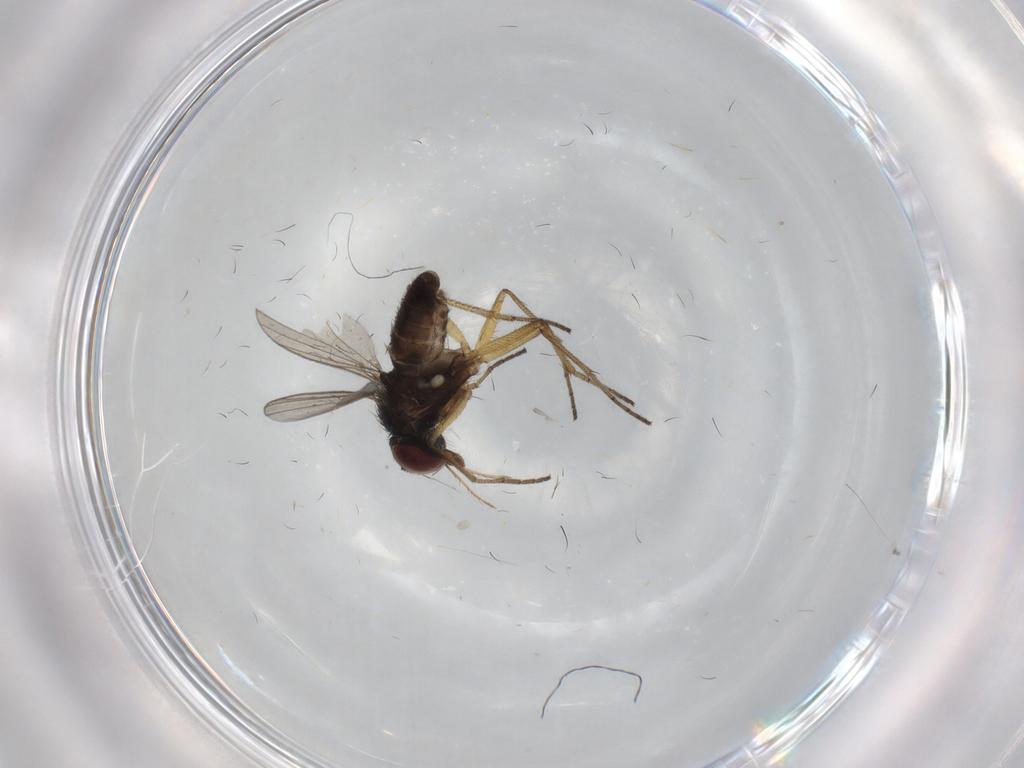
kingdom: Animalia
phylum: Arthropoda
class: Insecta
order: Diptera
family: Dolichopodidae
